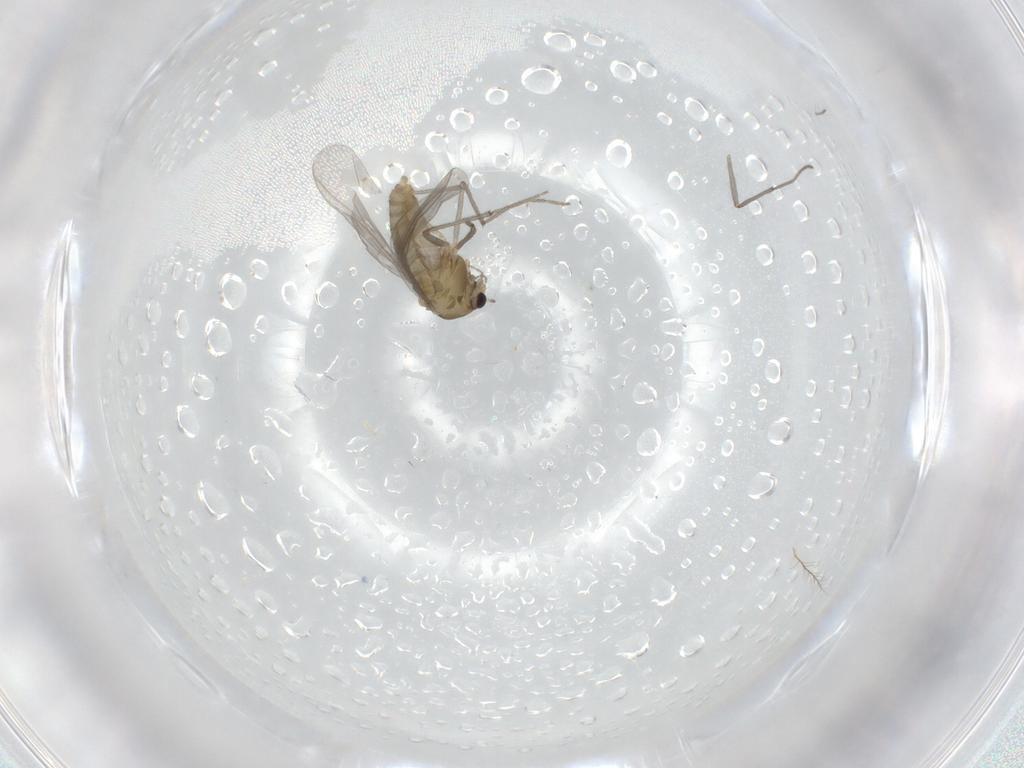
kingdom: Animalia
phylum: Arthropoda
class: Insecta
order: Diptera
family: Chironomidae
